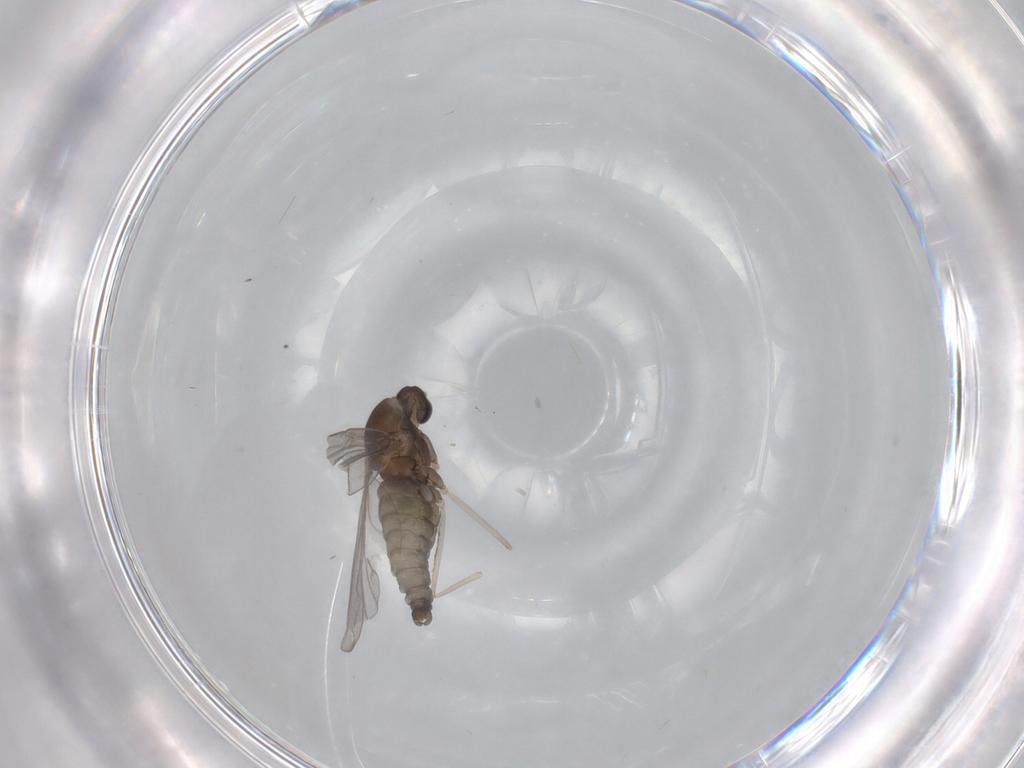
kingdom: Animalia
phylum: Arthropoda
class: Insecta
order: Diptera
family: Cecidomyiidae
